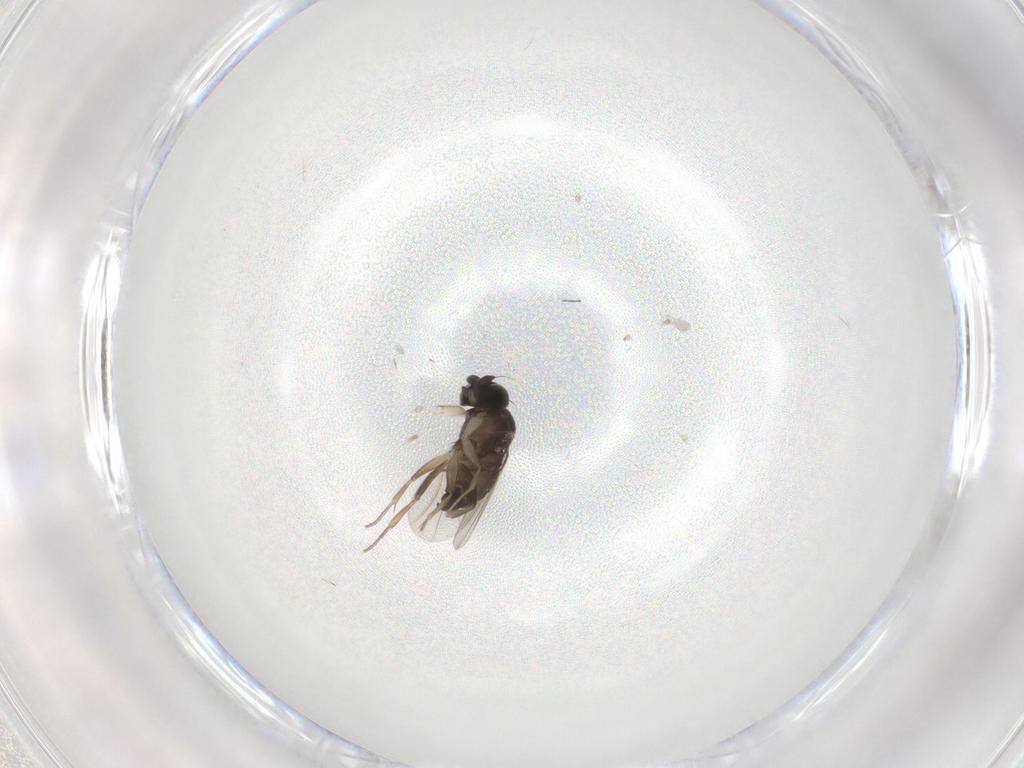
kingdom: Animalia
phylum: Arthropoda
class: Insecta
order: Diptera
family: Phoridae
